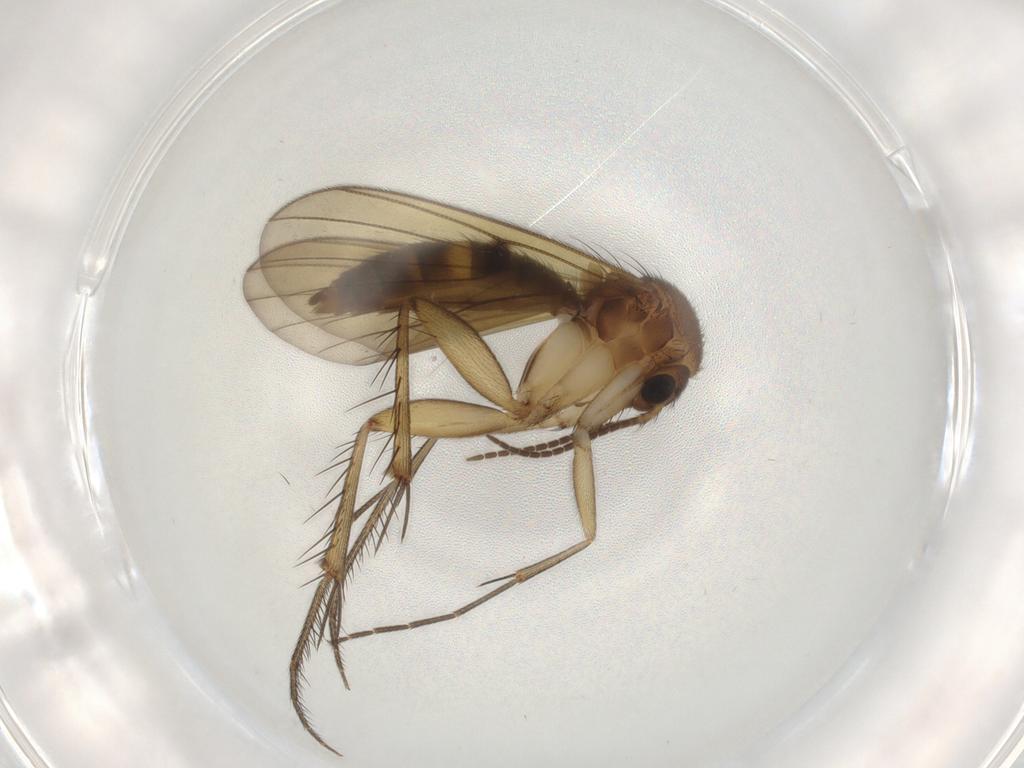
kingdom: Animalia
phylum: Arthropoda
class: Insecta
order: Diptera
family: Mycetophilidae
